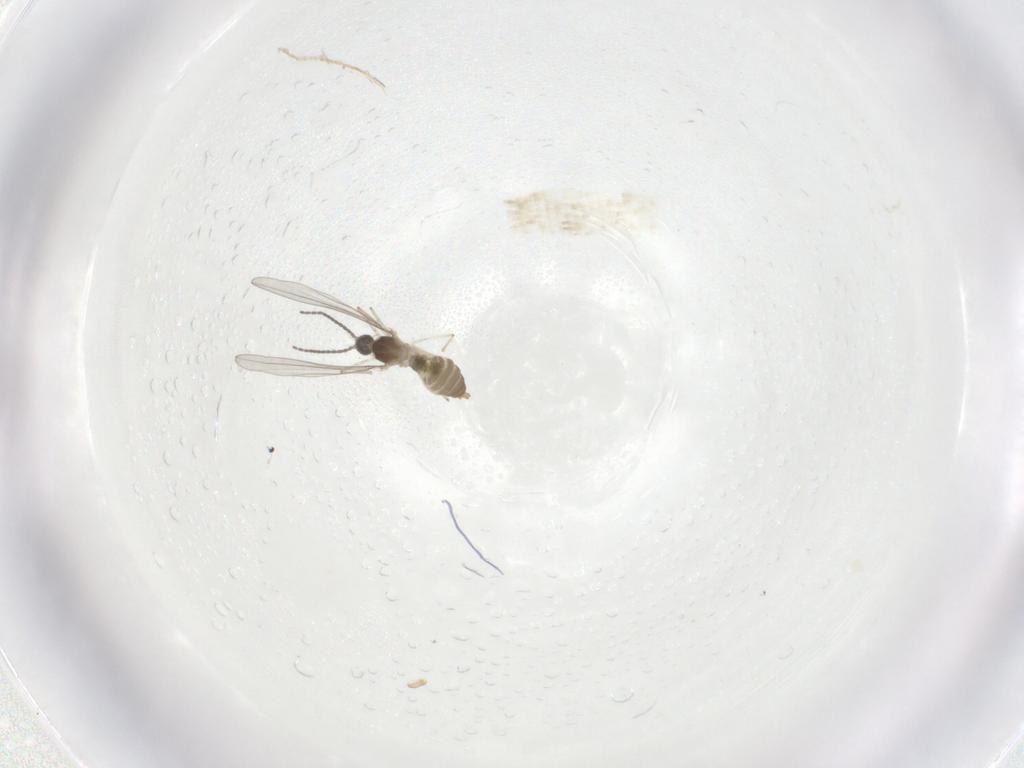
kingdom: Animalia
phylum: Arthropoda
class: Insecta
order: Diptera
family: Cecidomyiidae
